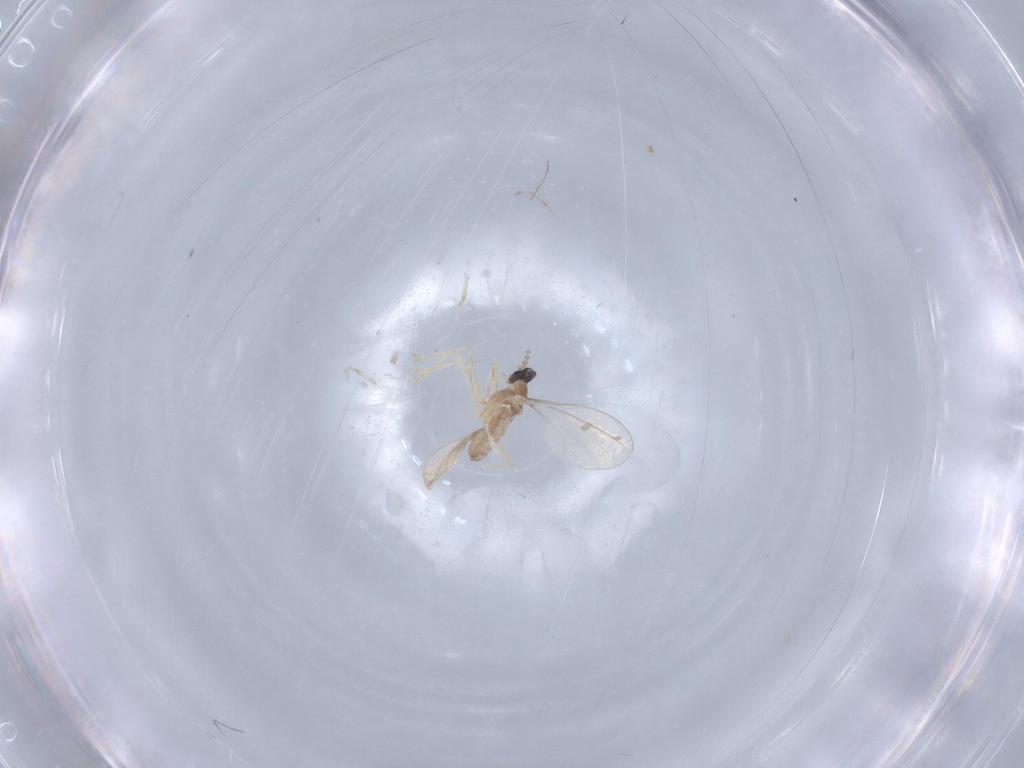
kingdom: Animalia
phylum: Arthropoda
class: Insecta
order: Diptera
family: Cecidomyiidae
